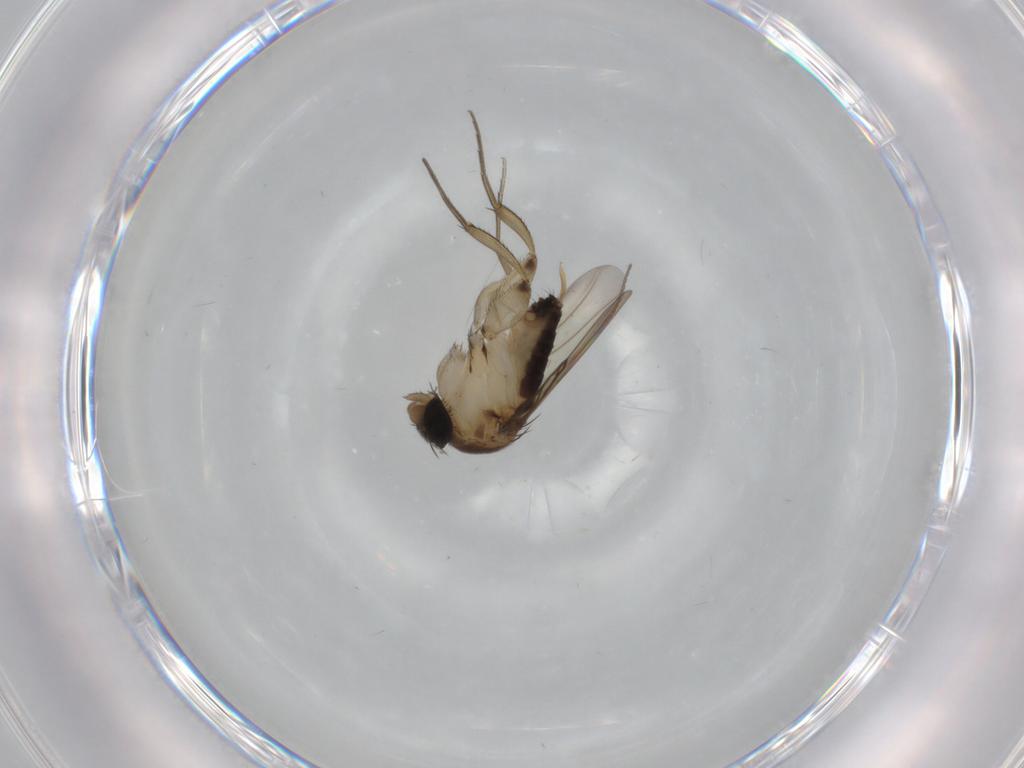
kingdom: Animalia
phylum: Arthropoda
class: Insecta
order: Diptera
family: Phoridae
